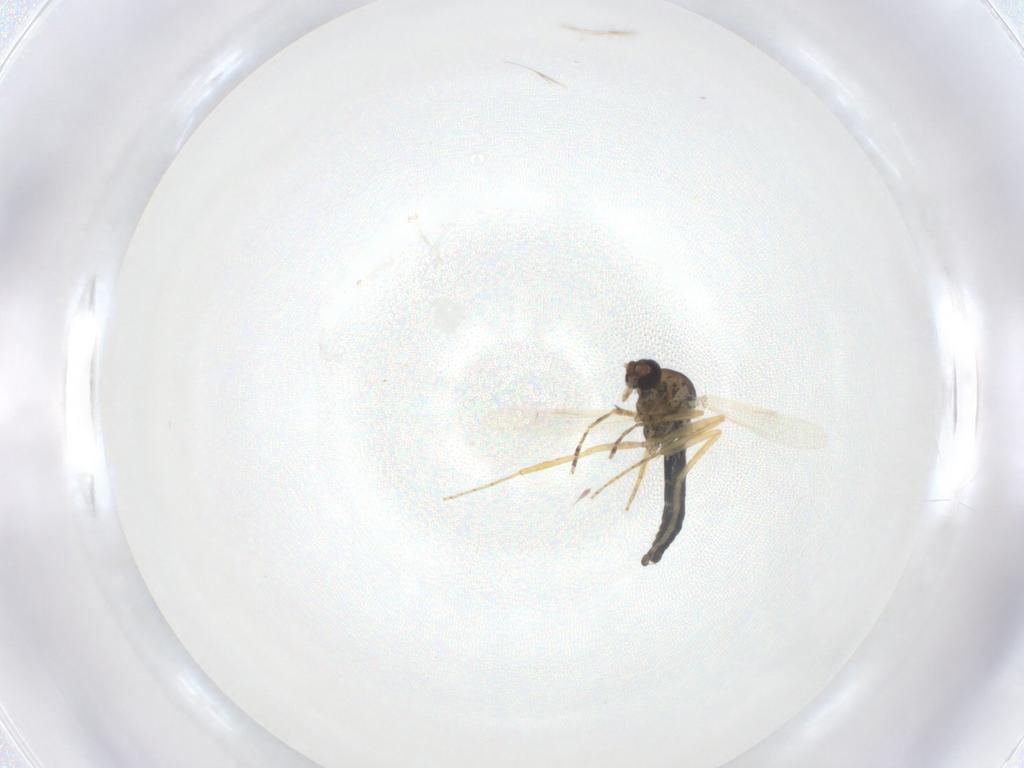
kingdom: Animalia
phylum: Arthropoda
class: Insecta
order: Diptera
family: Ceratopogonidae
